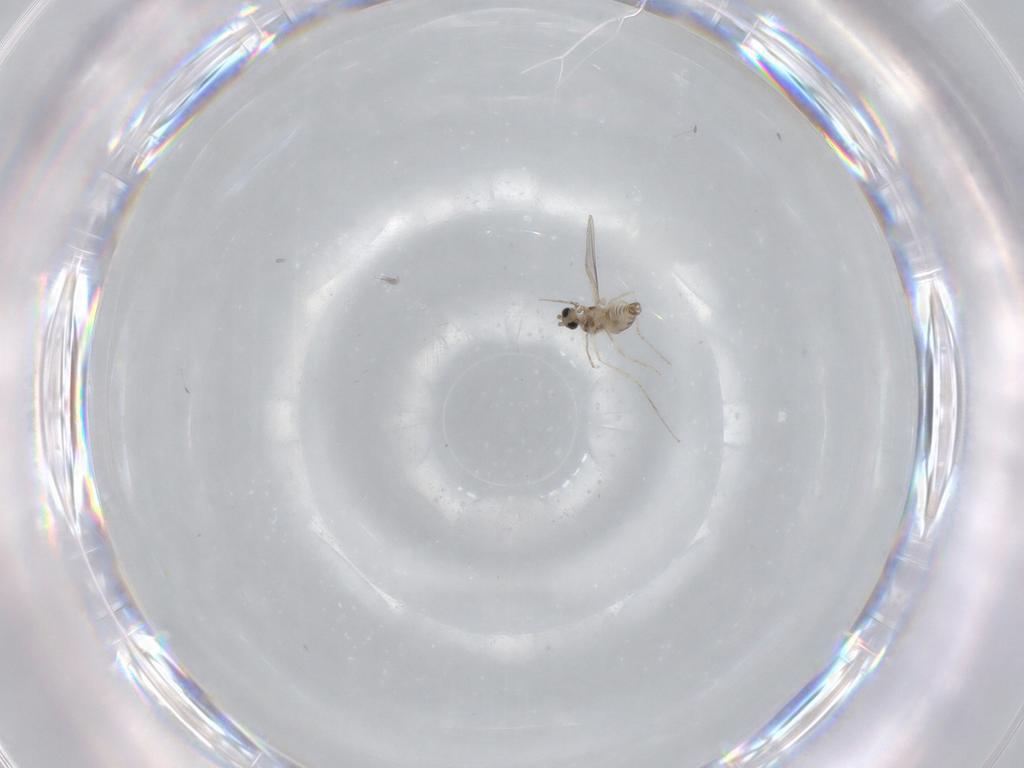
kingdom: Animalia
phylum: Arthropoda
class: Insecta
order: Diptera
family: Cecidomyiidae
